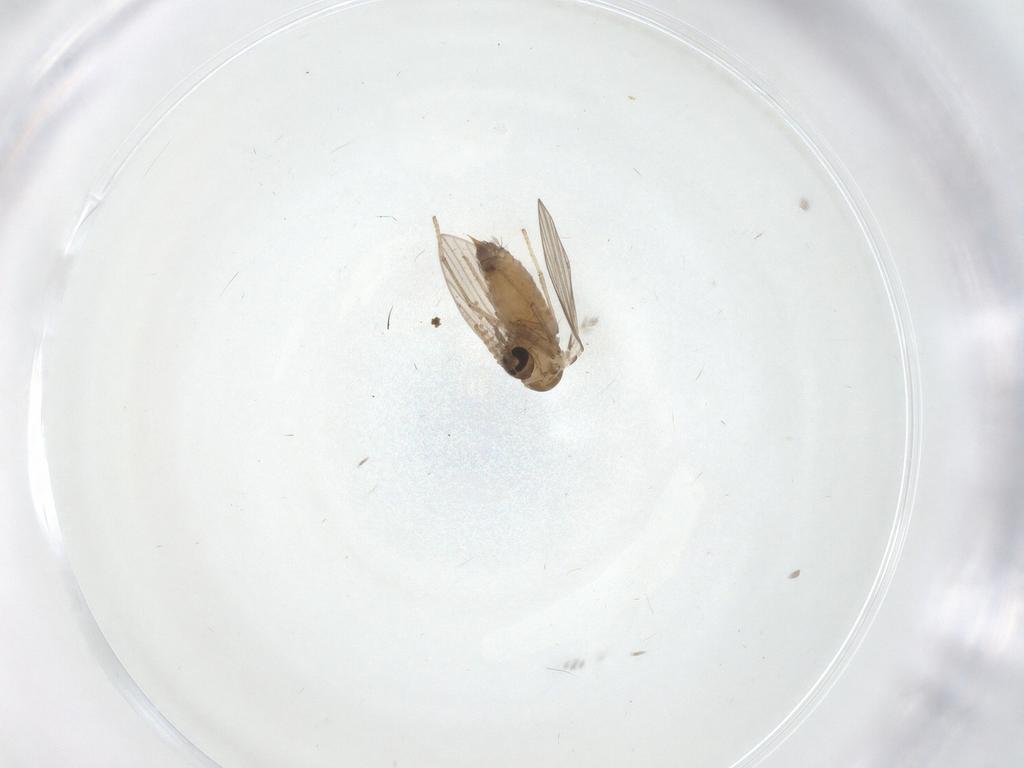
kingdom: Animalia
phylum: Arthropoda
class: Insecta
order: Diptera
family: Psychodidae
